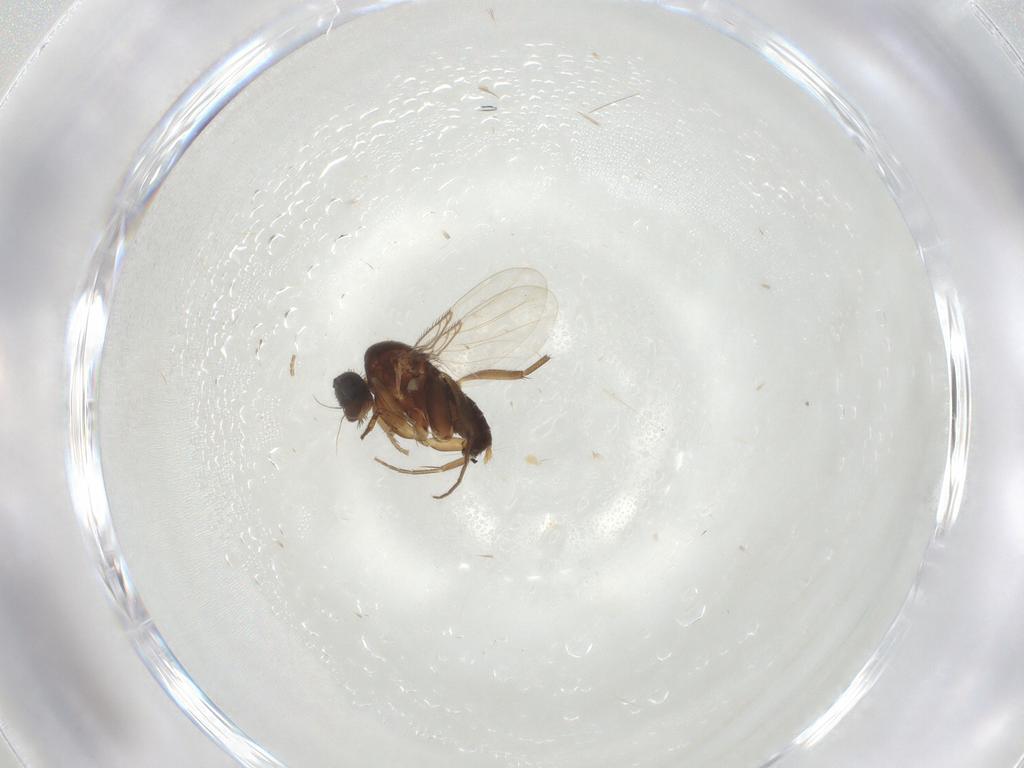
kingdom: Animalia
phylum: Arthropoda
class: Insecta
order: Diptera
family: Phoridae
